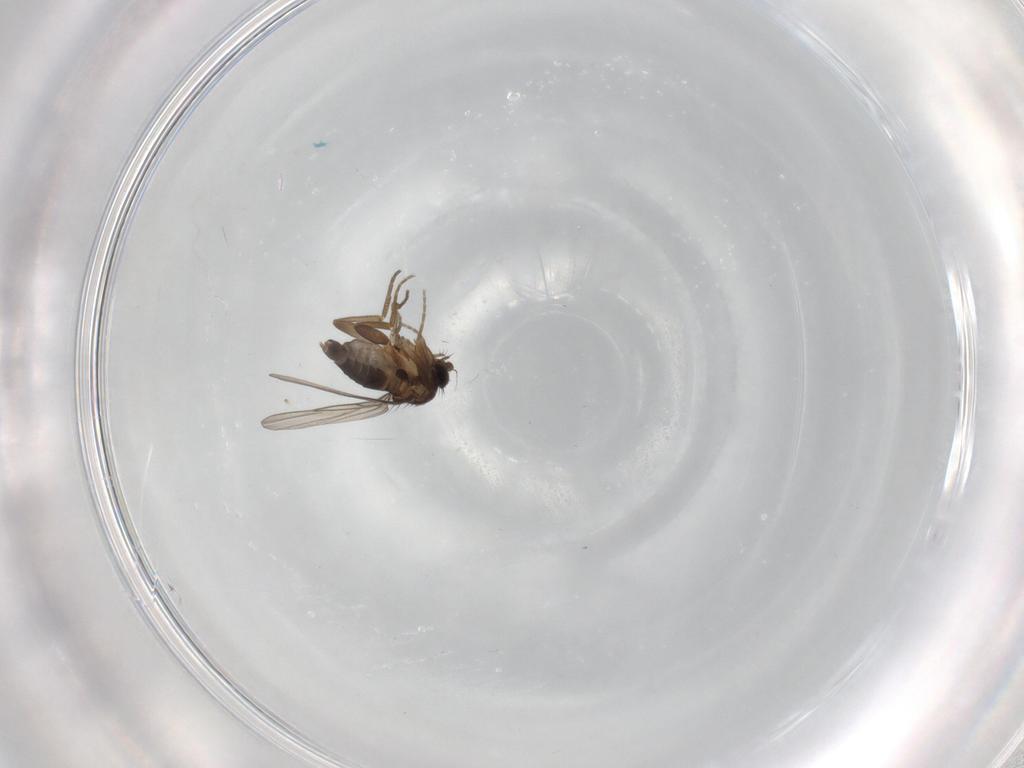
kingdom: Animalia
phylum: Arthropoda
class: Insecta
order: Diptera
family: Phoridae
